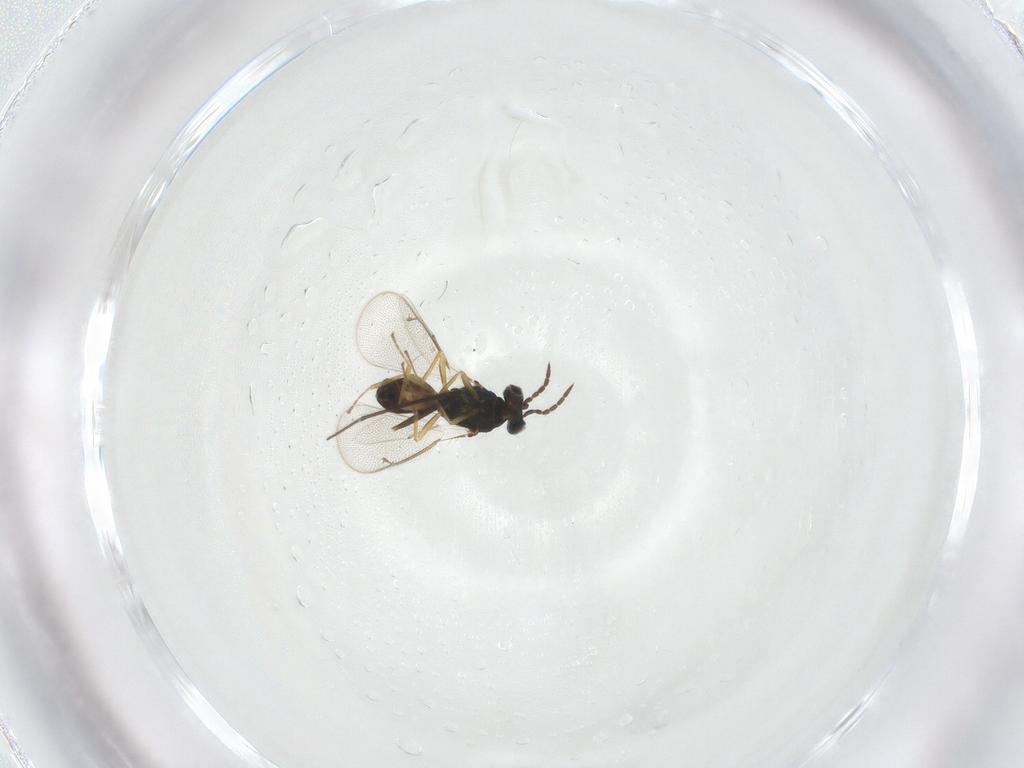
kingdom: Animalia
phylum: Arthropoda
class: Insecta
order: Hymenoptera
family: Eulophidae
